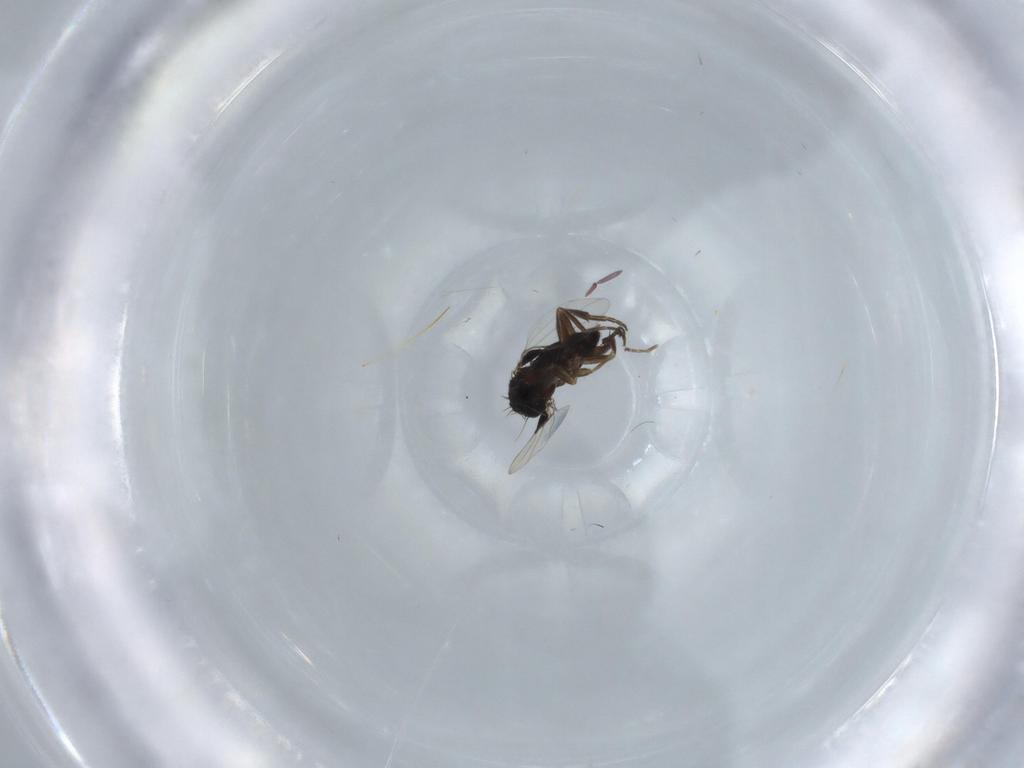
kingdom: Animalia
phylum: Arthropoda
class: Insecta
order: Diptera
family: Phoridae
